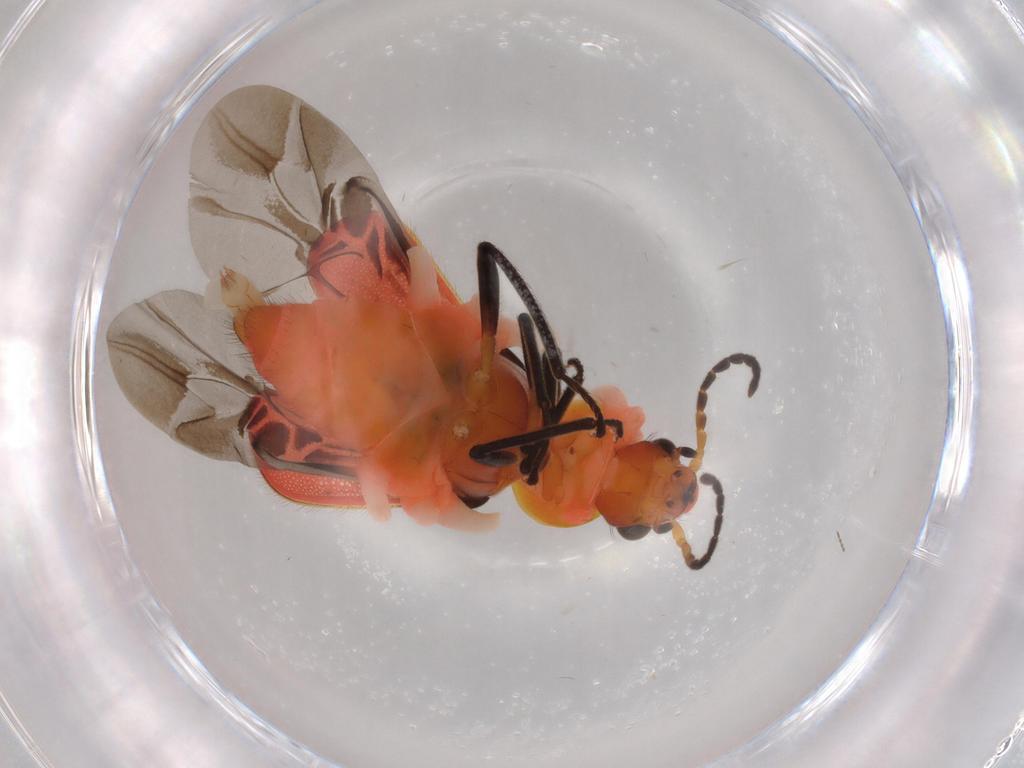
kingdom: Animalia
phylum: Arthropoda
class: Insecta
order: Coleoptera
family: Melyridae
